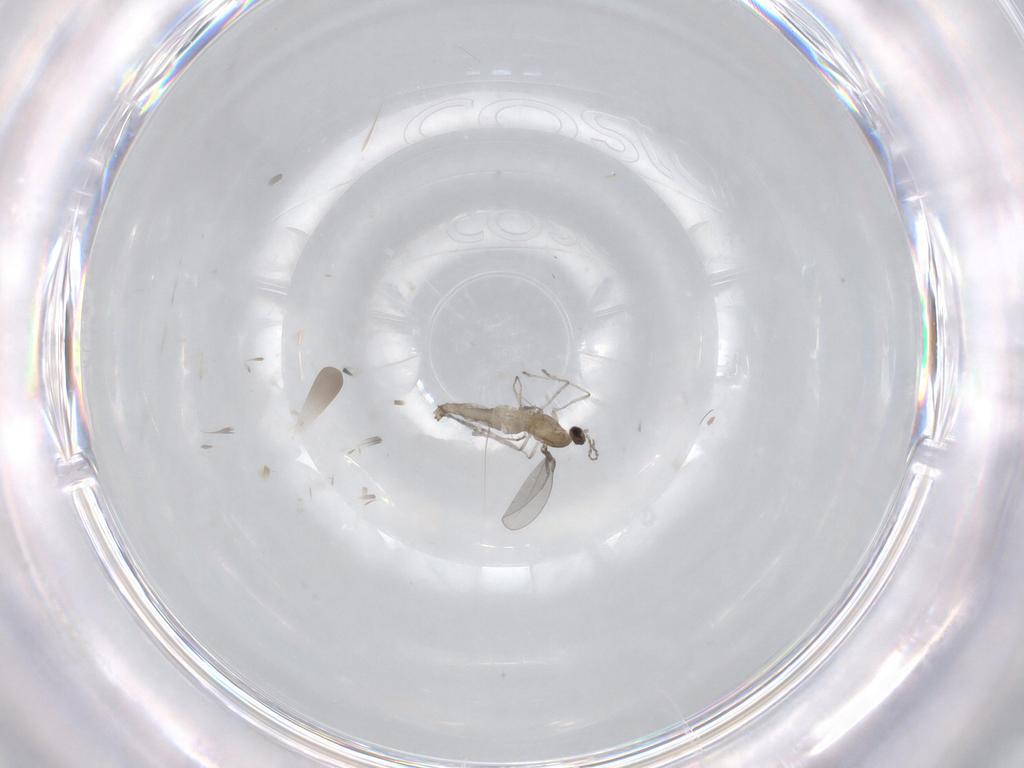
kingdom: Animalia
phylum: Arthropoda
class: Insecta
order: Diptera
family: Sciaridae
